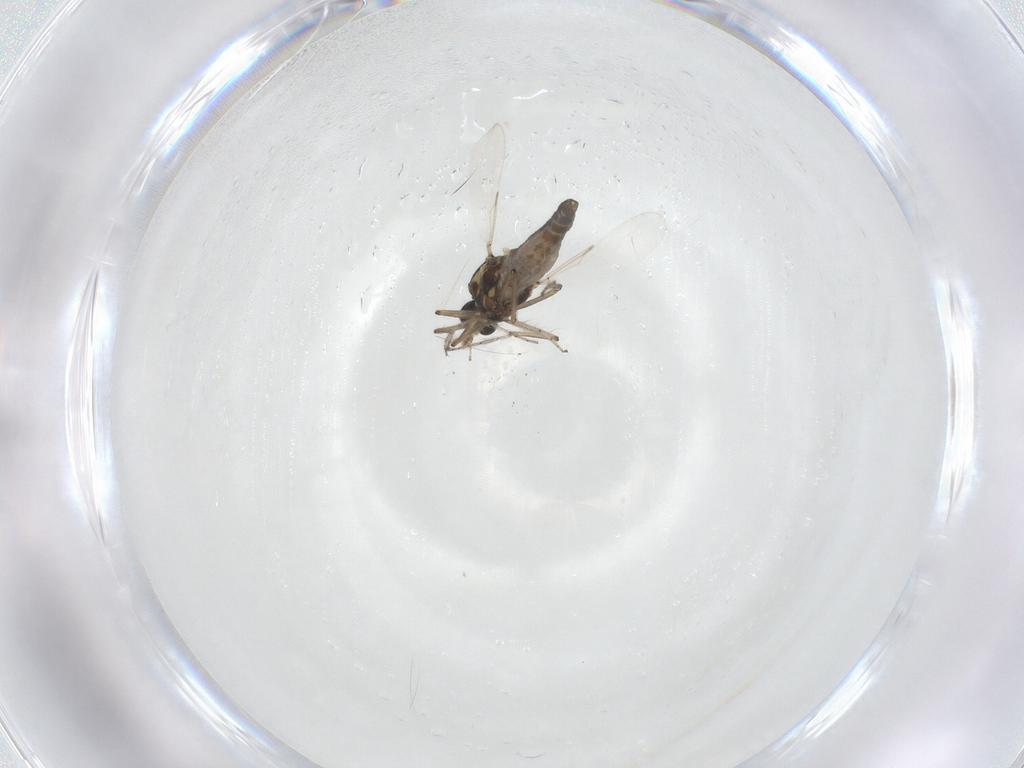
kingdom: Animalia
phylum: Arthropoda
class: Insecta
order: Diptera
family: Ceratopogonidae
